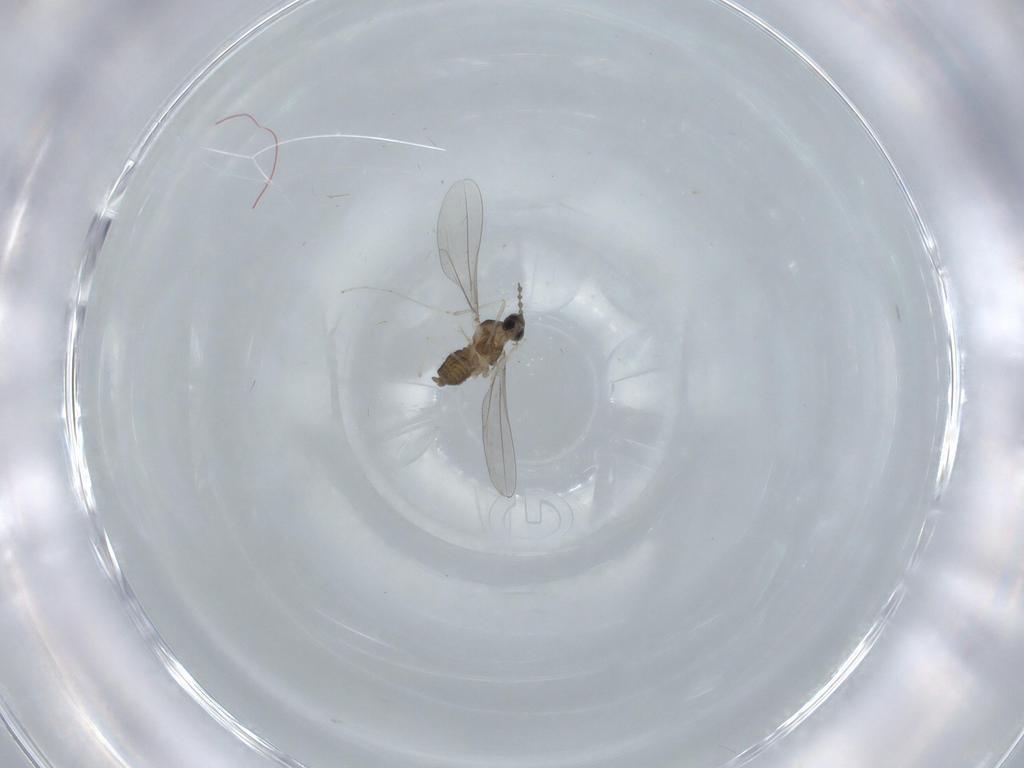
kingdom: Animalia
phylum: Arthropoda
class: Insecta
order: Diptera
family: Cecidomyiidae
